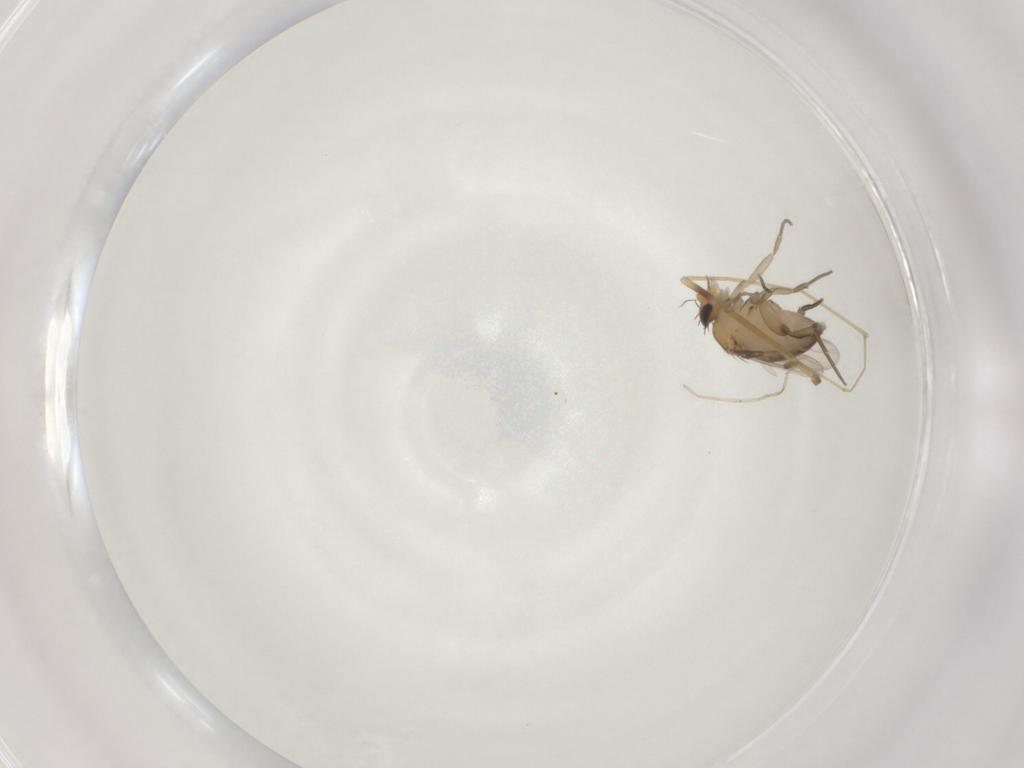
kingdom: Animalia
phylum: Arthropoda
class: Insecta
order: Diptera
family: Phoridae
